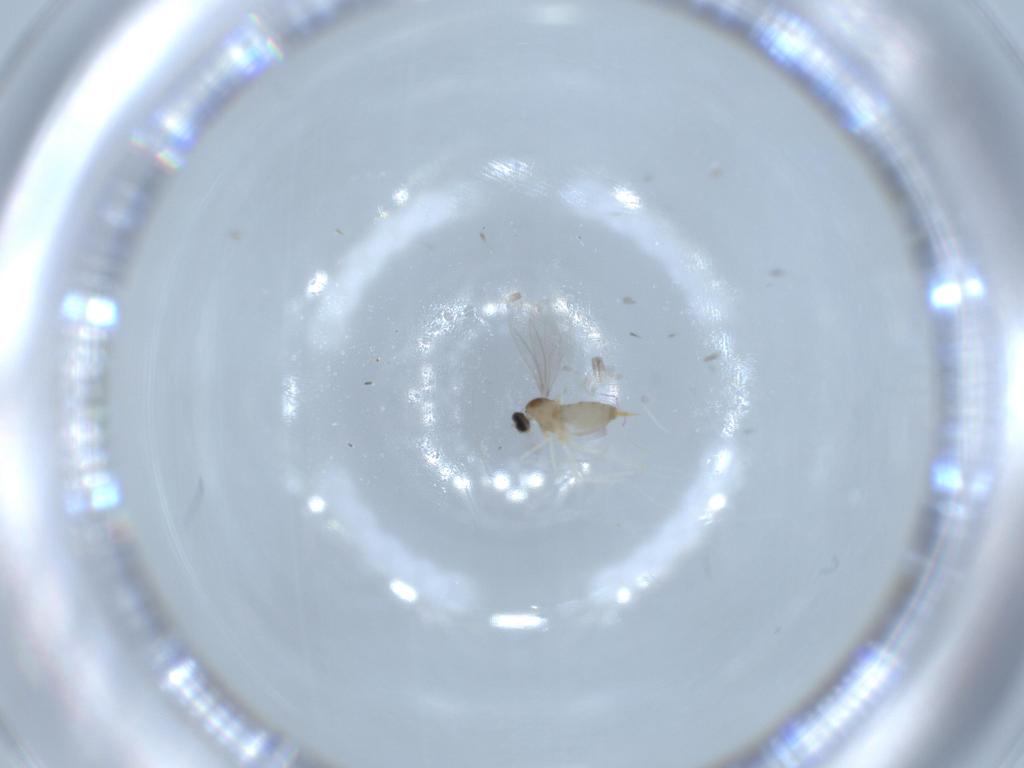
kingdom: Animalia
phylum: Arthropoda
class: Insecta
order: Diptera
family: Cecidomyiidae
